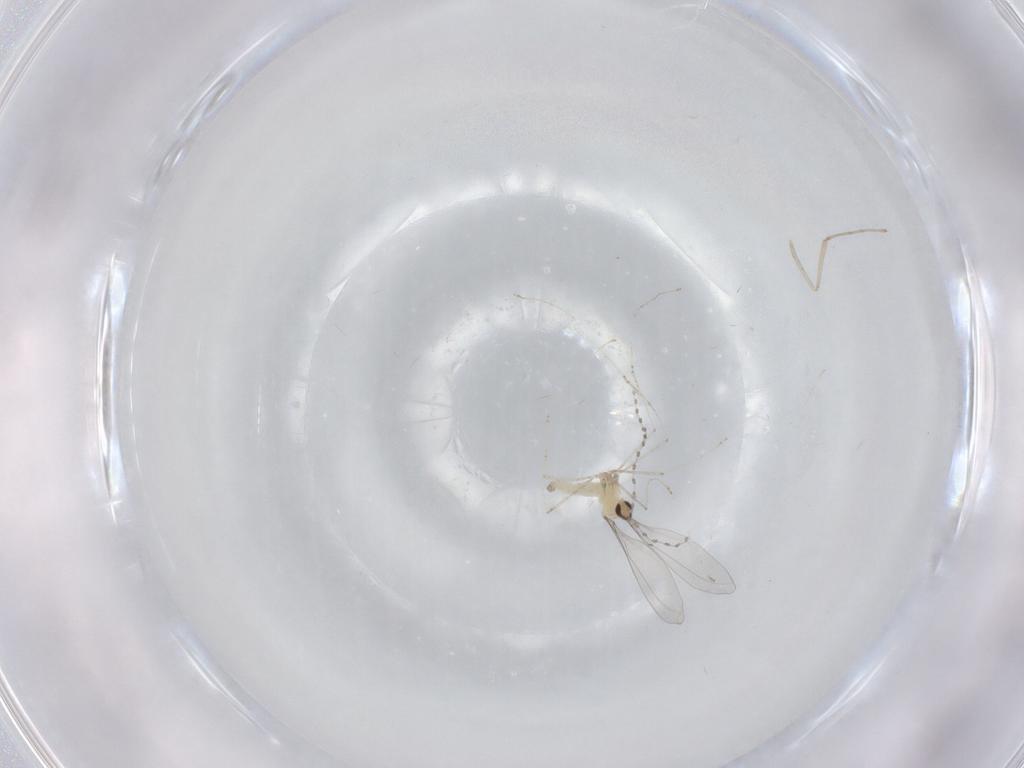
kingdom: Animalia
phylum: Arthropoda
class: Insecta
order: Diptera
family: Cecidomyiidae
